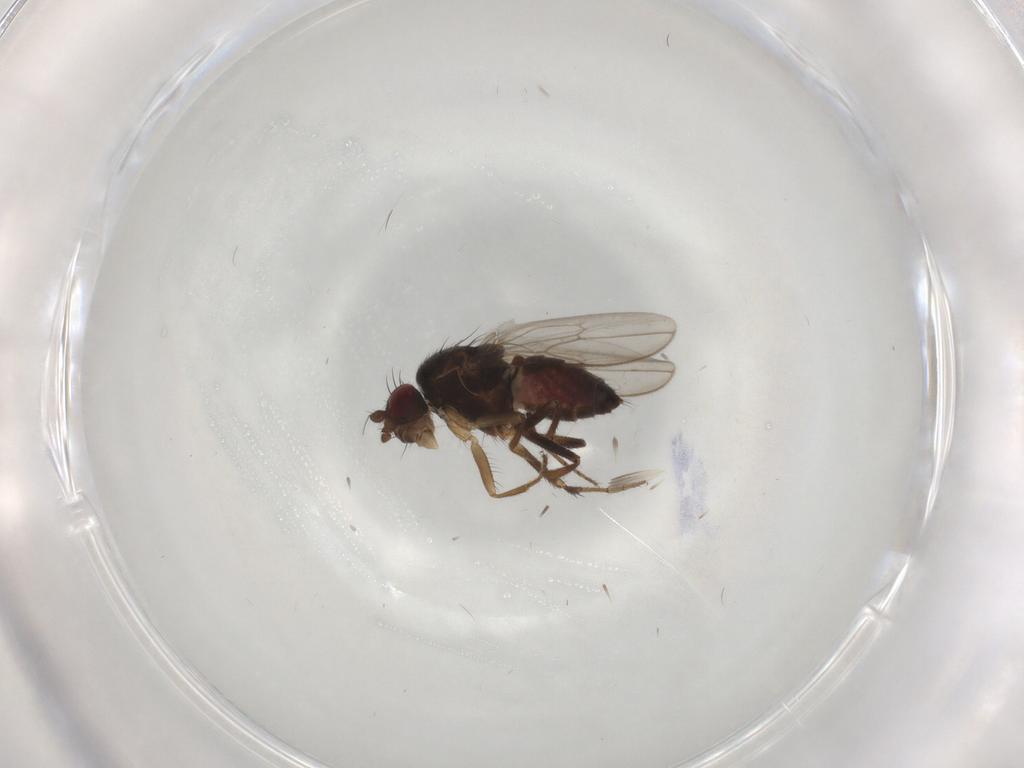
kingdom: Animalia
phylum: Arthropoda
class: Insecta
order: Diptera
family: Sphaeroceridae
